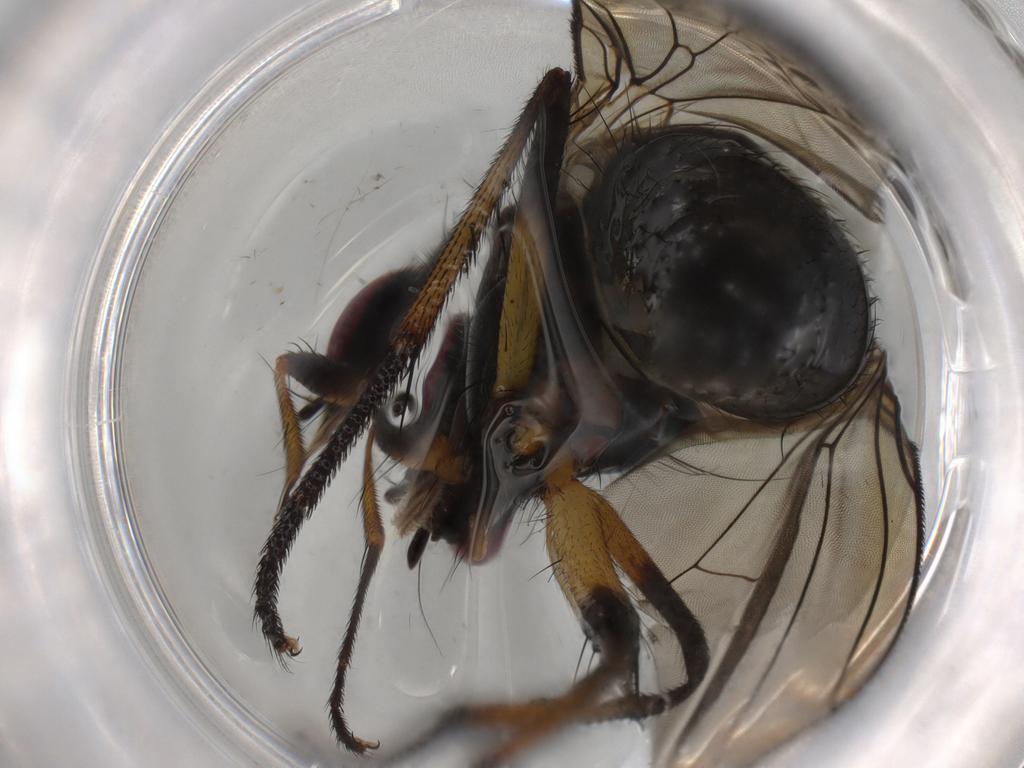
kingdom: Animalia
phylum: Arthropoda
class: Insecta
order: Diptera
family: Anthomyiidae
